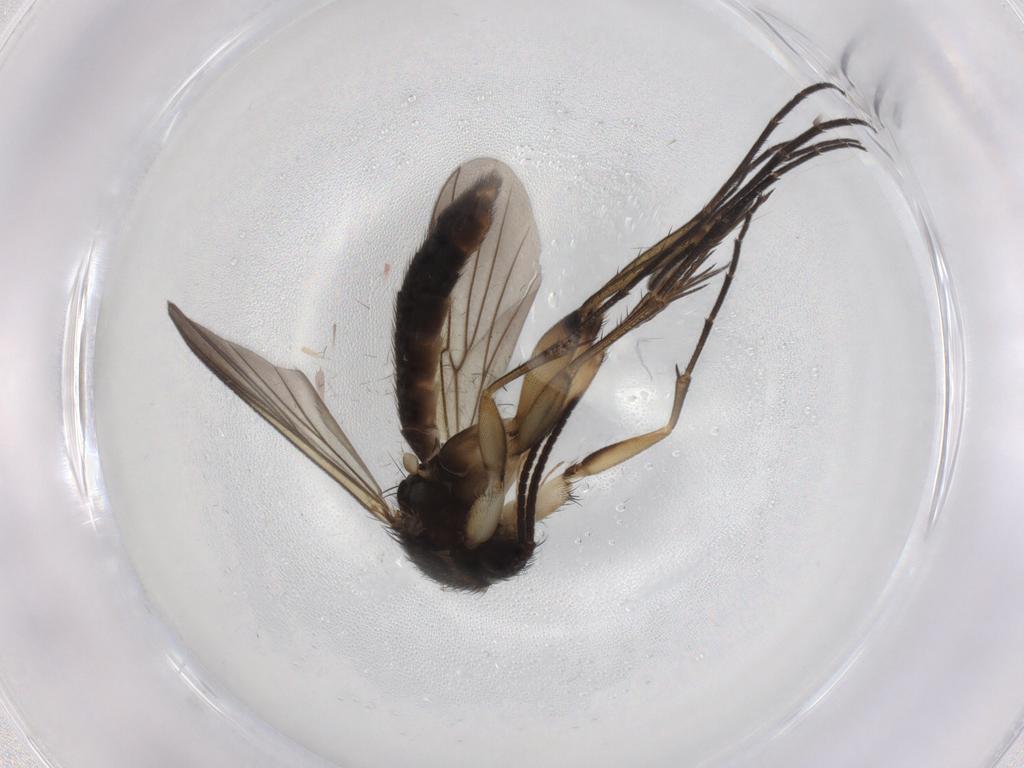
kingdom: Animalia
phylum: Arthropoda
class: Insecta
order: Diptera
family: Cecidomyiidae
